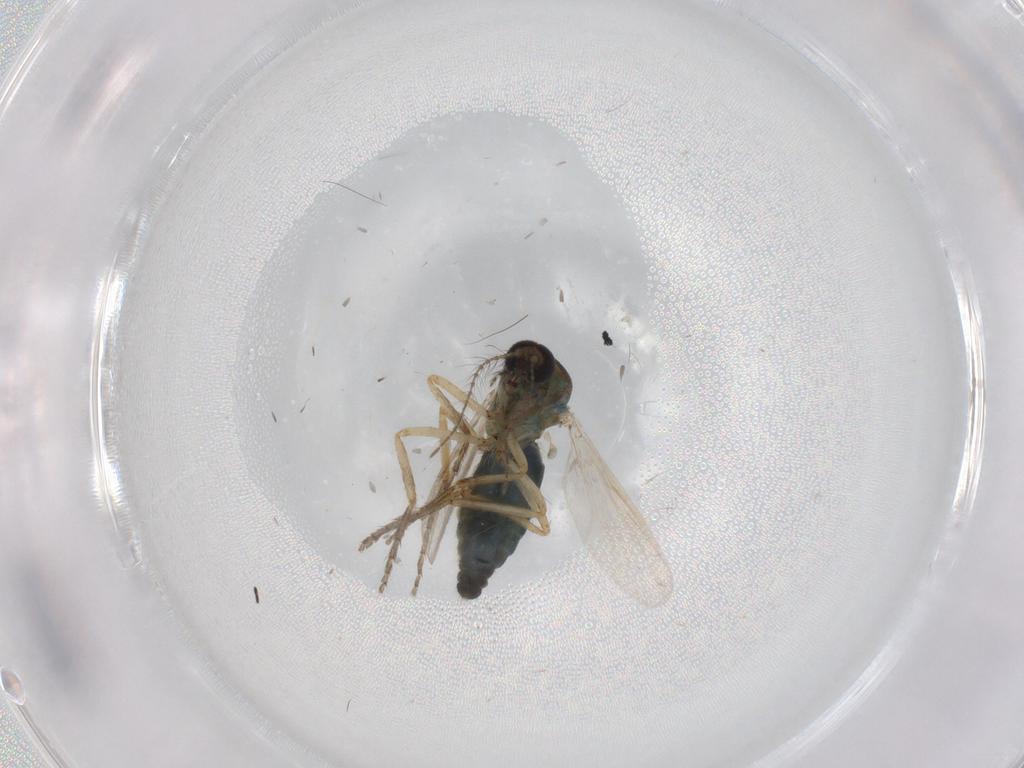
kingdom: Animalia
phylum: Arthropoda
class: Insecta
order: Diptera
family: Ceratopogonidae
